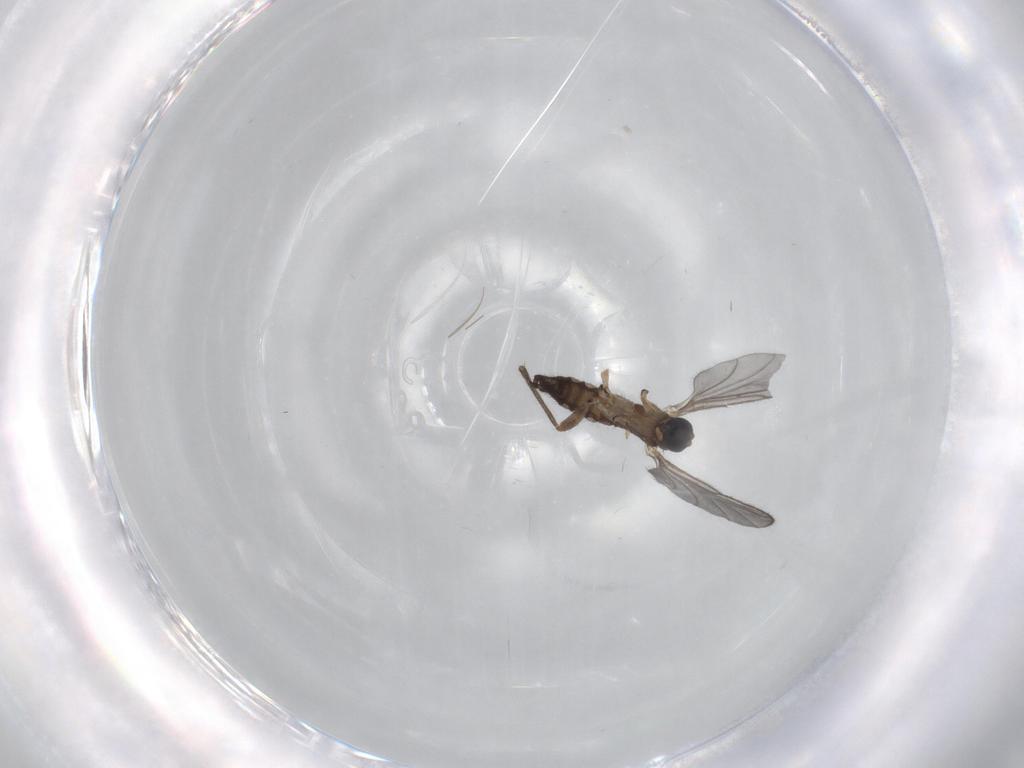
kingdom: Animalia
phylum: Arthropoda
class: Insecta
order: Diptera
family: Sciaridae
